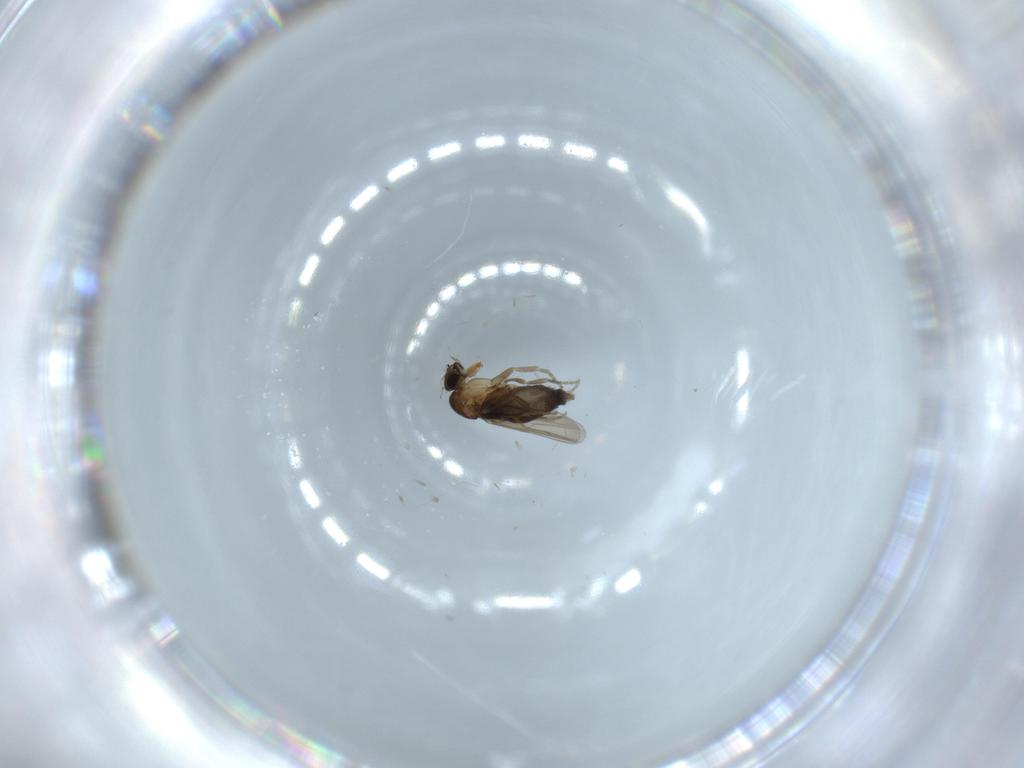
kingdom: Animalia
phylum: Arthropoda
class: Insecta
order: Diptera
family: Phoridae
